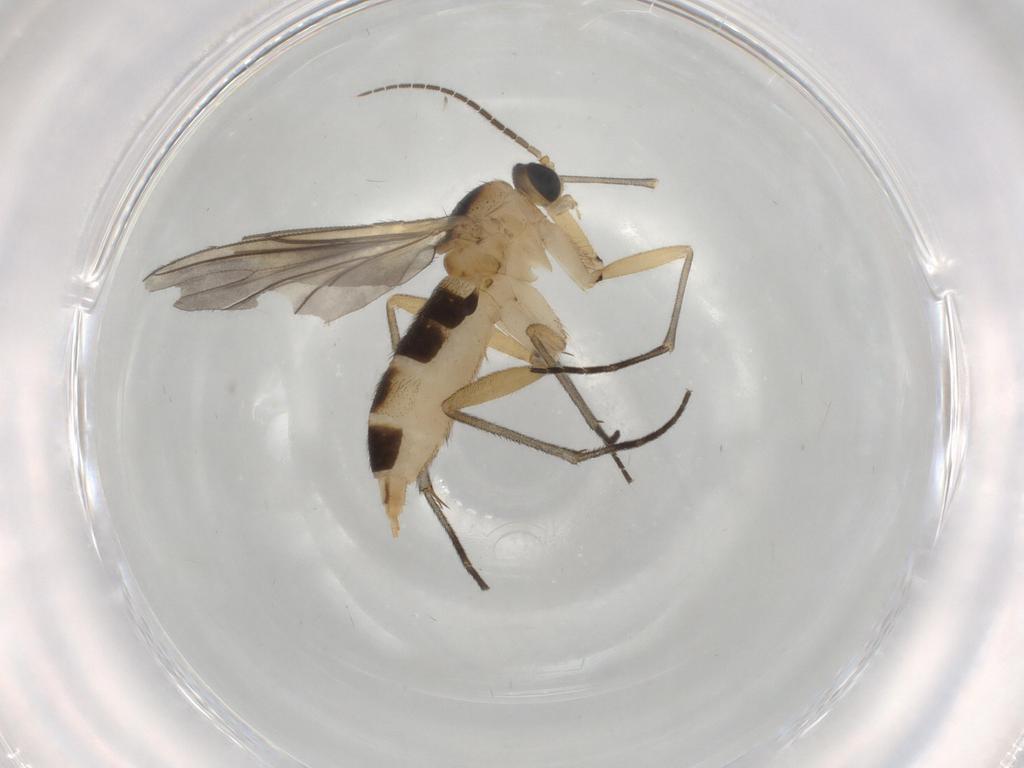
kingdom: Animalia
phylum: Arthropoda
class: Insecta
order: Diptera
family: Sciaridae
